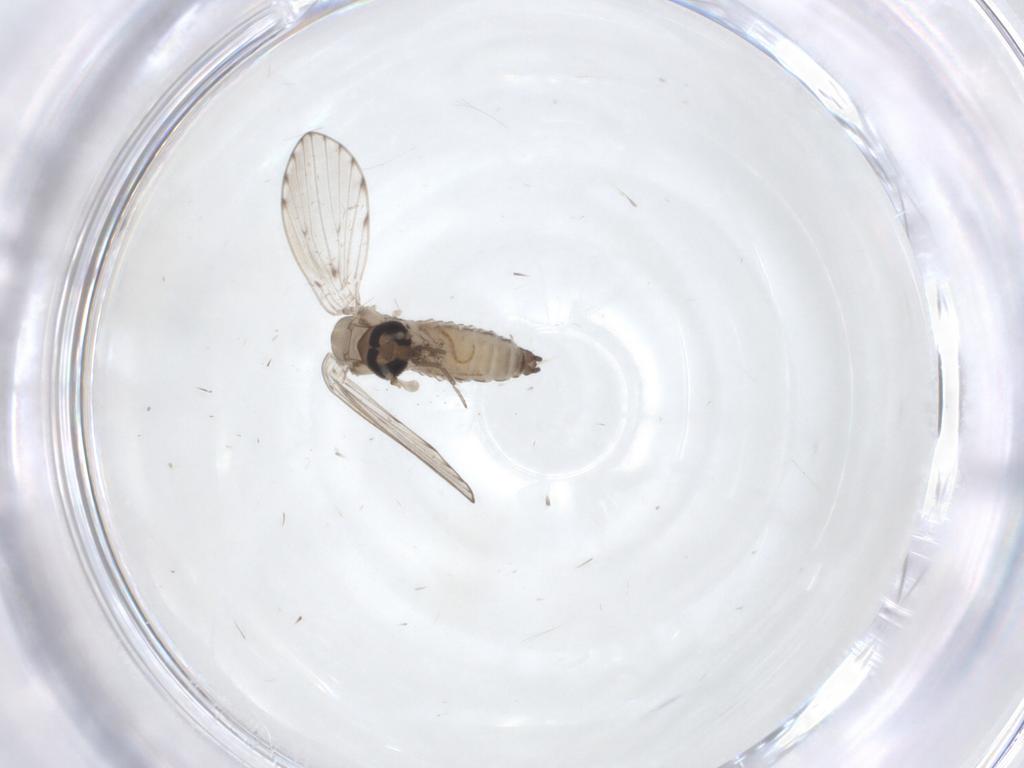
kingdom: Animalia
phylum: Arthropoda
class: Insecta
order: Diptera
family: Psychodidae
